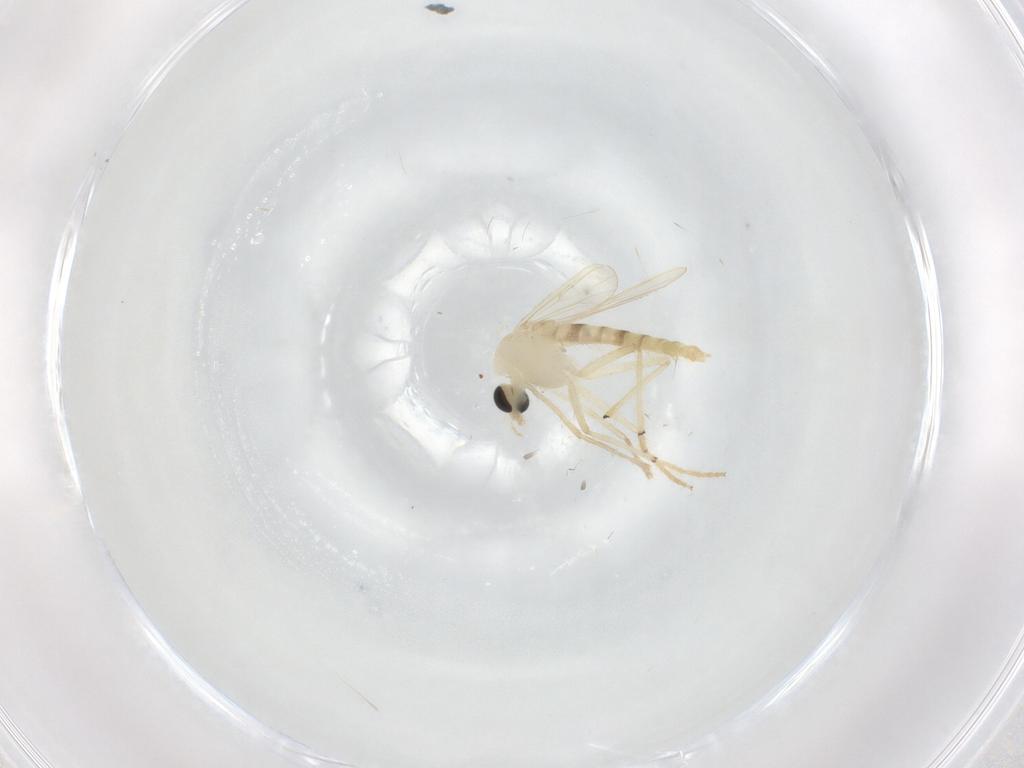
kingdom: Animalia
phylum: Arthropoda
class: Insecta
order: Diptera
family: Chironomidae
